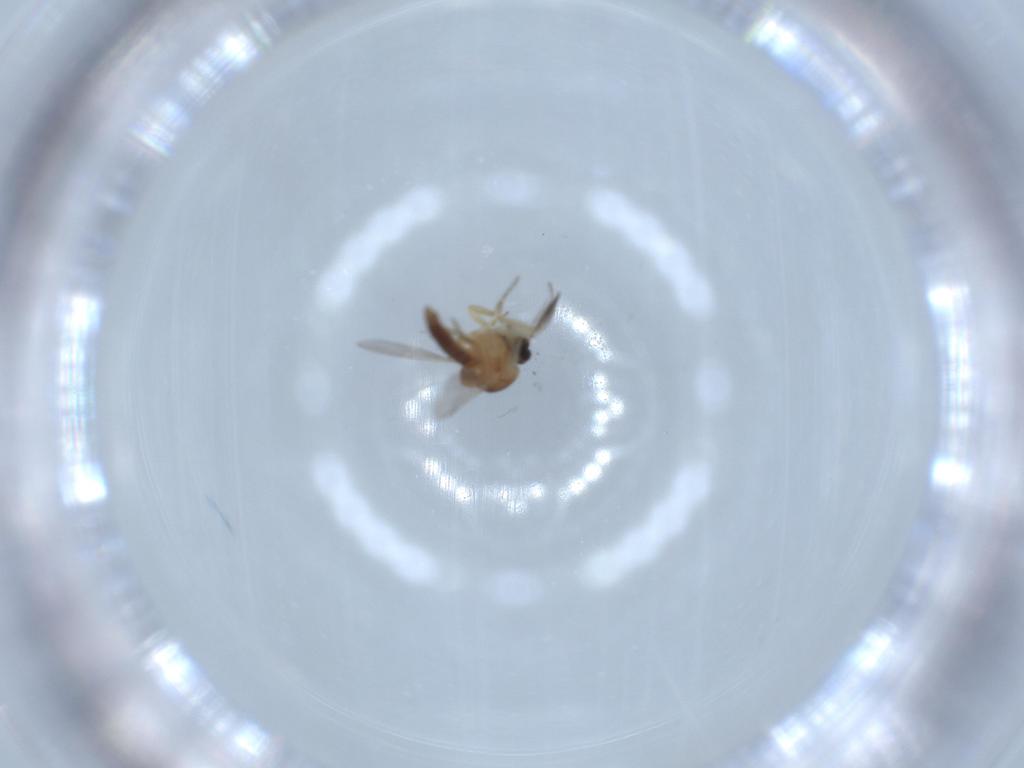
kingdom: Animalia
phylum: Arthropoda
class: Insecta
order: Diptera
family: Ceratopogonidae
